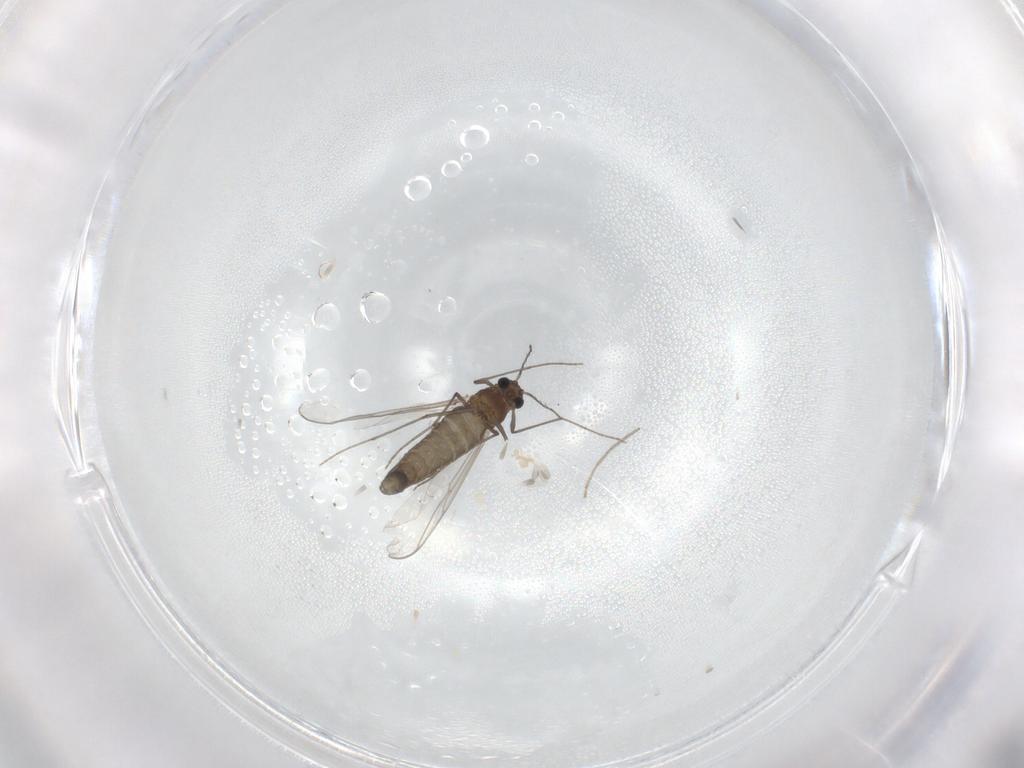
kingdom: Animalia
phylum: Arthropoda
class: Insecta
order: Diptera
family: Chironomidae
